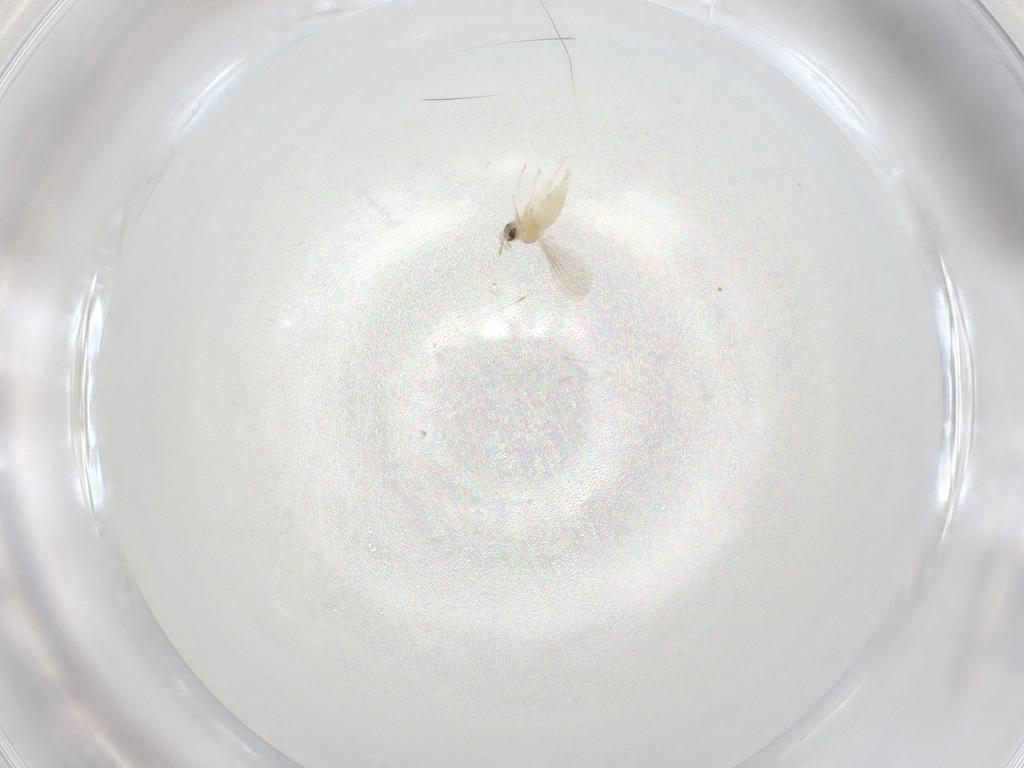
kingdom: Animalia
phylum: Arthropoda
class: Insecta
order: Diptera
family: Cecidomyiidae
